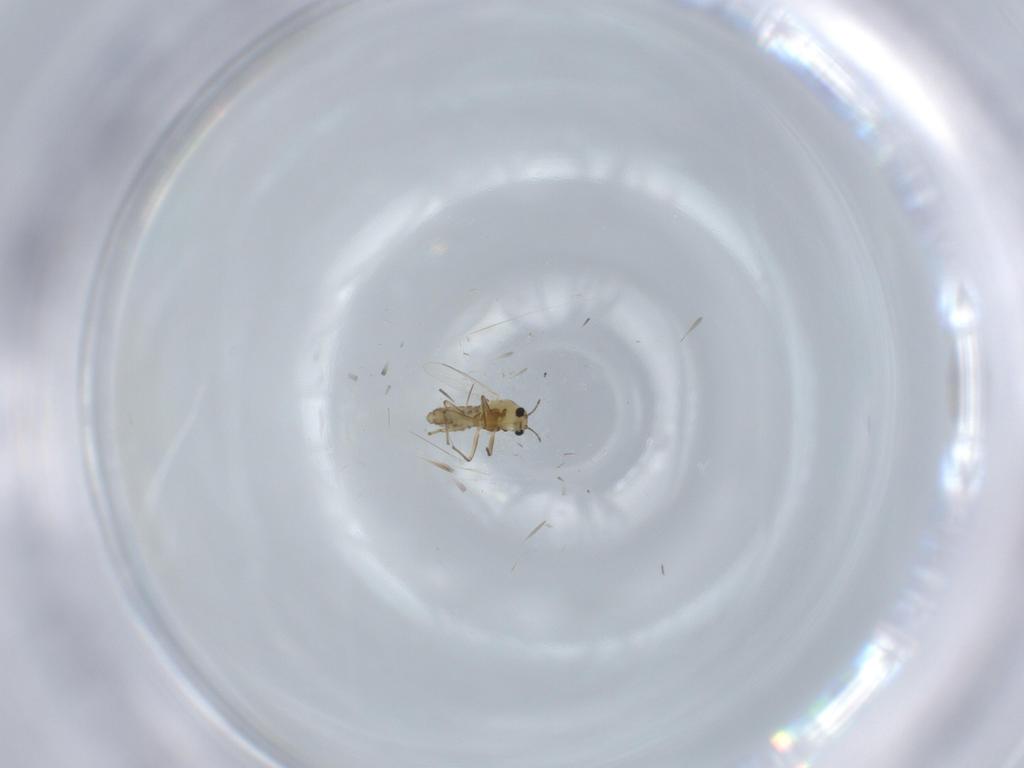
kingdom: Animalia
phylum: Arthropoda
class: Insecta
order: Diptera
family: Chironomidae
